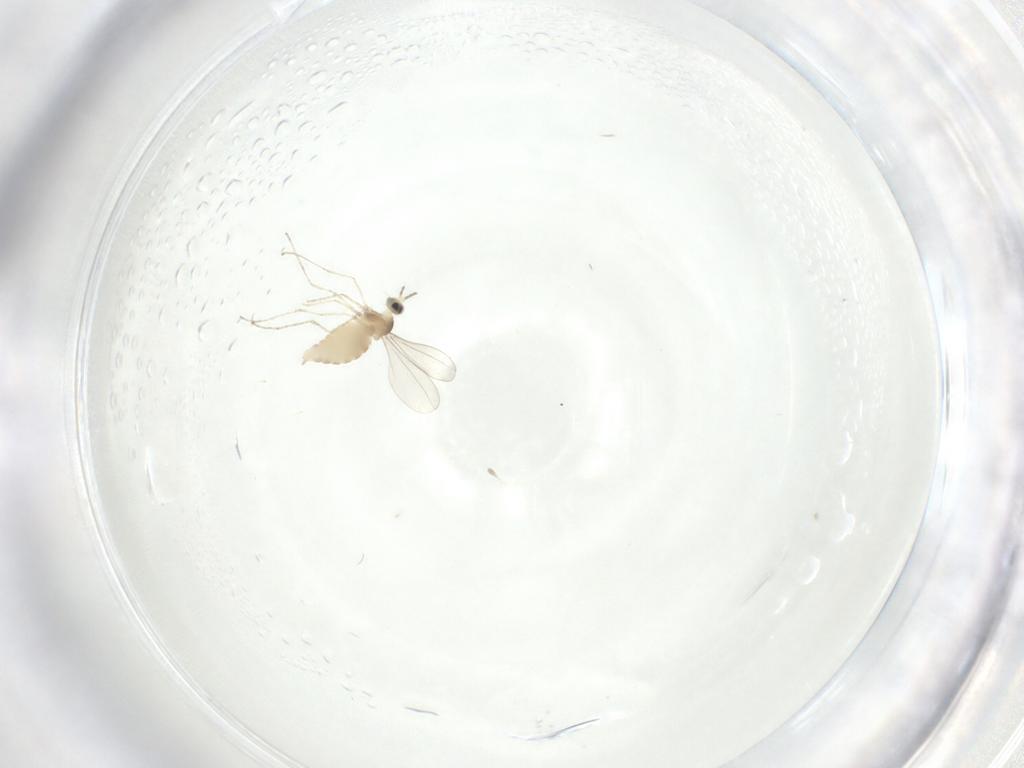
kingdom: Animalia
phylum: Arthropoda
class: Insecta
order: Diptera
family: Cecidomyiidae
